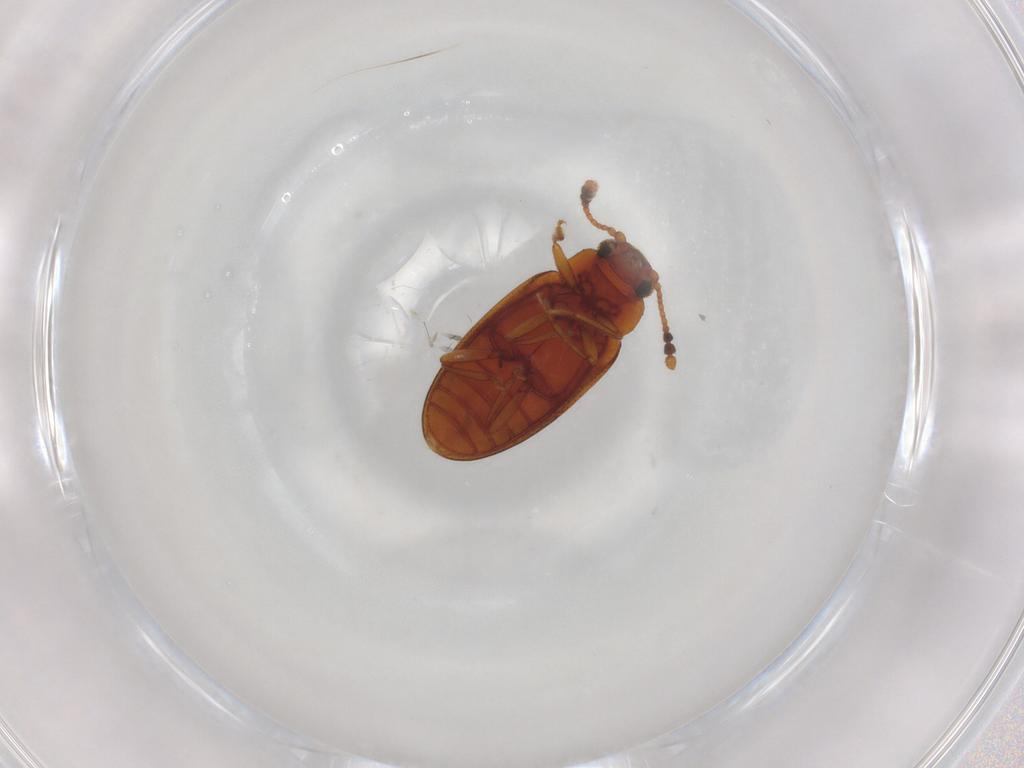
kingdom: Animalia
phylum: Arthropoda
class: Insecta
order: Coleoptera
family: Erotylidae
